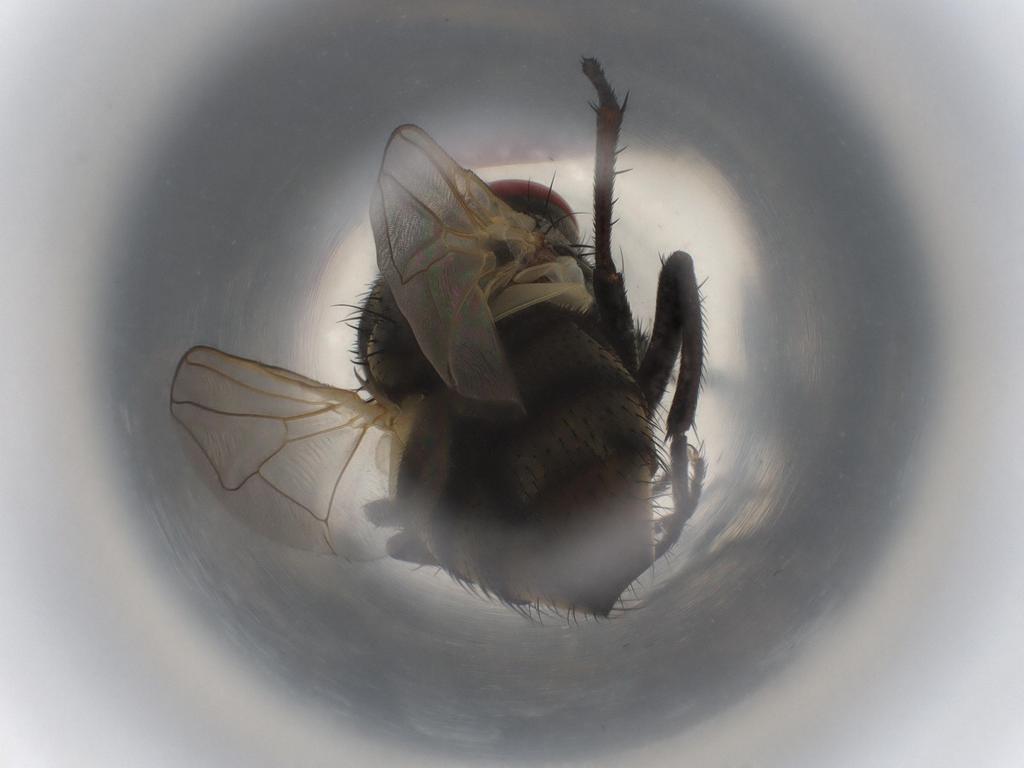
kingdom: Animalia
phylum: Arthropoda
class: Insecta
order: Diptera
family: Muscidae
